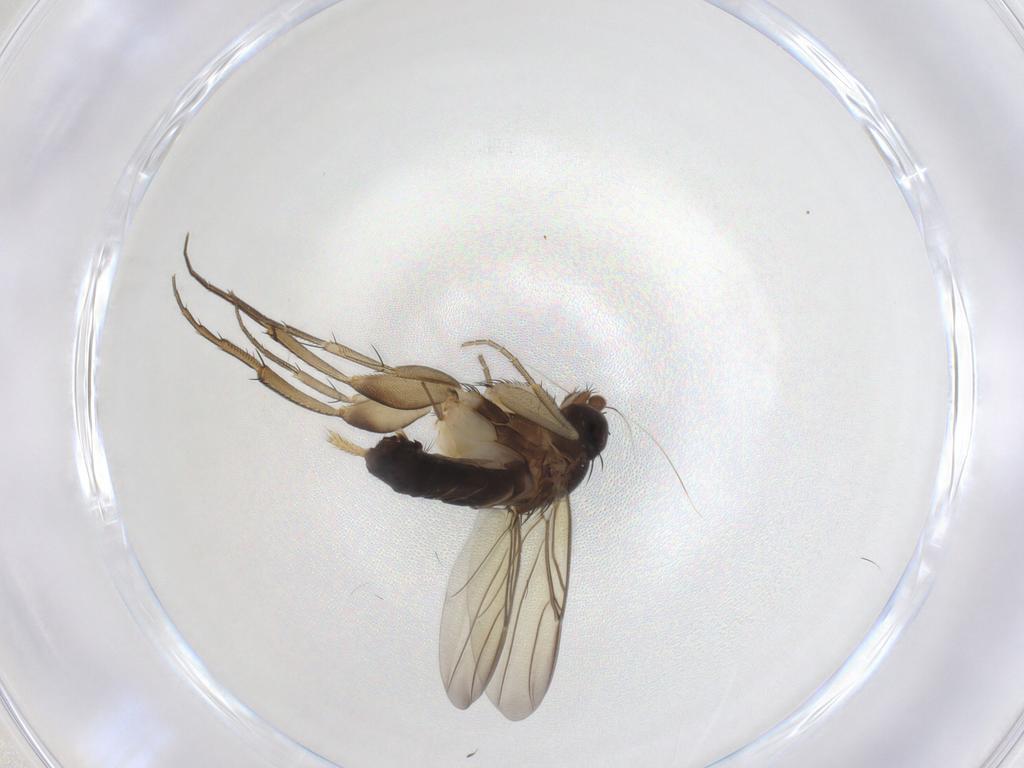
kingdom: Animalia
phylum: Arthropoda
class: Insecta
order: Diptera
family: Phoridae
